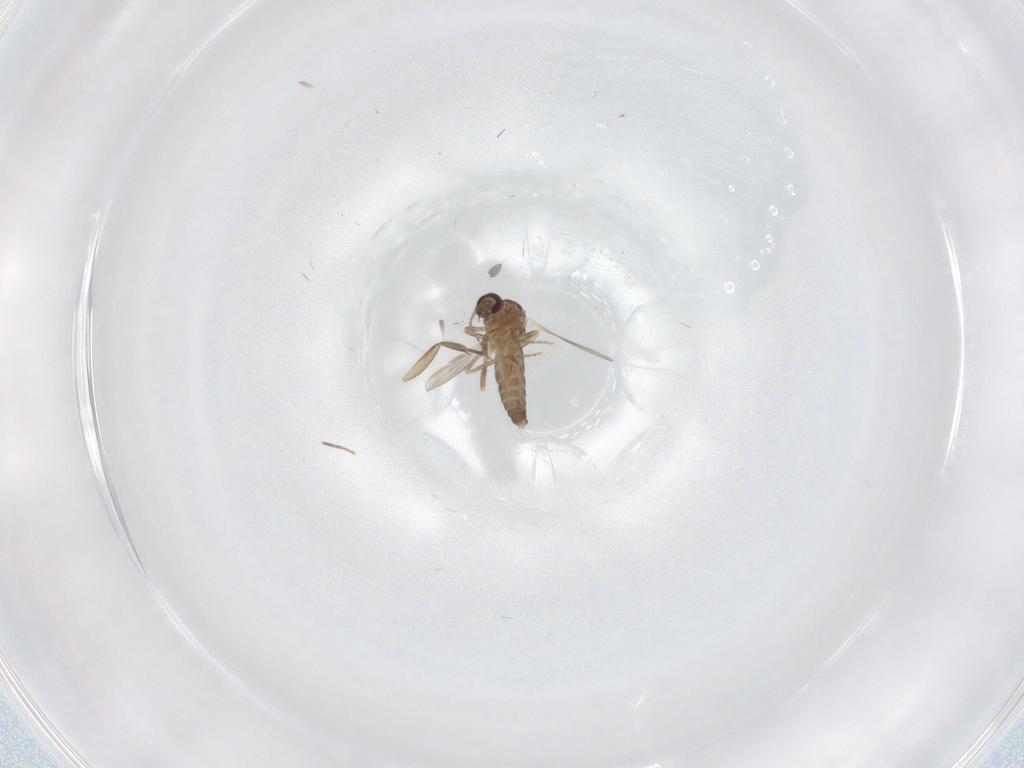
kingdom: Animalia
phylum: Arthropoda
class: Insecta
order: Diptera
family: Ceratopogonidae
